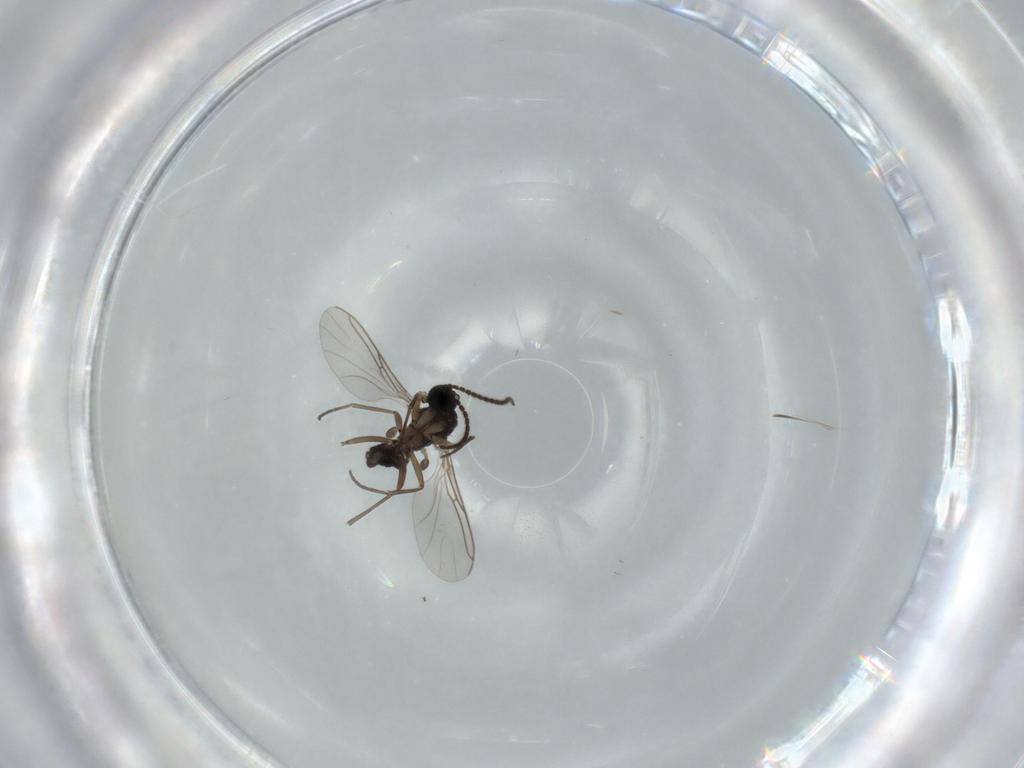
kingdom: Animalia
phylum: Arthropoda
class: Insecta
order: Diptera
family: Sciaridae
